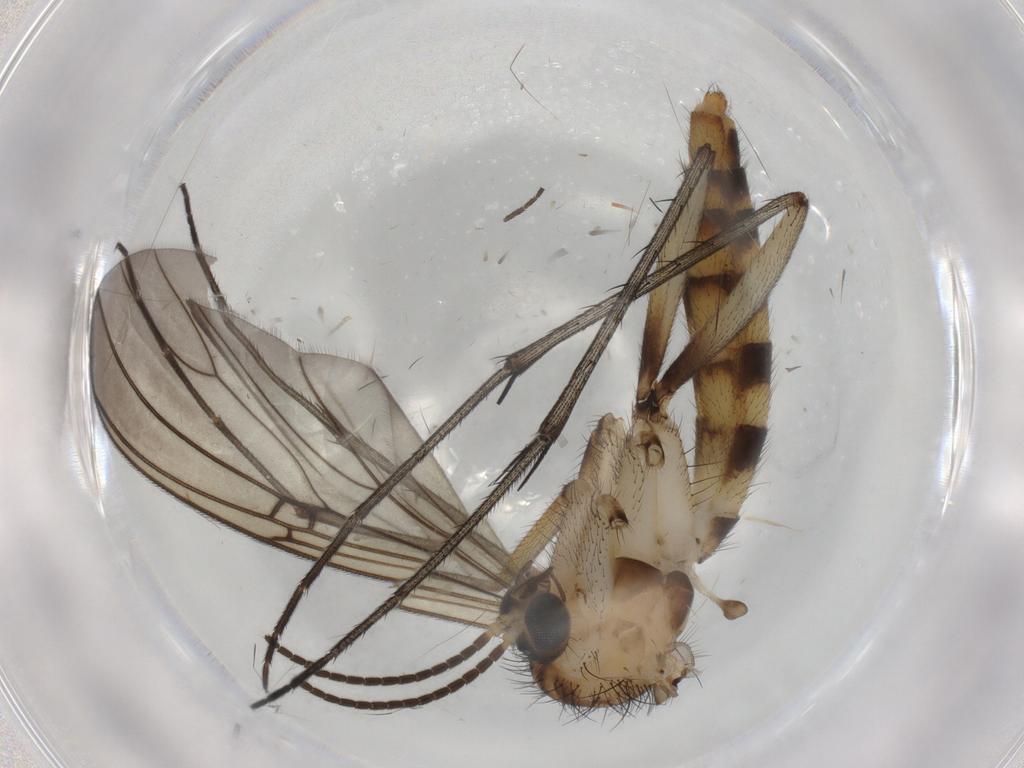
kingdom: Animalia
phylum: Arthropoda
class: Insecta
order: Diptera
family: Mycetophilidae
